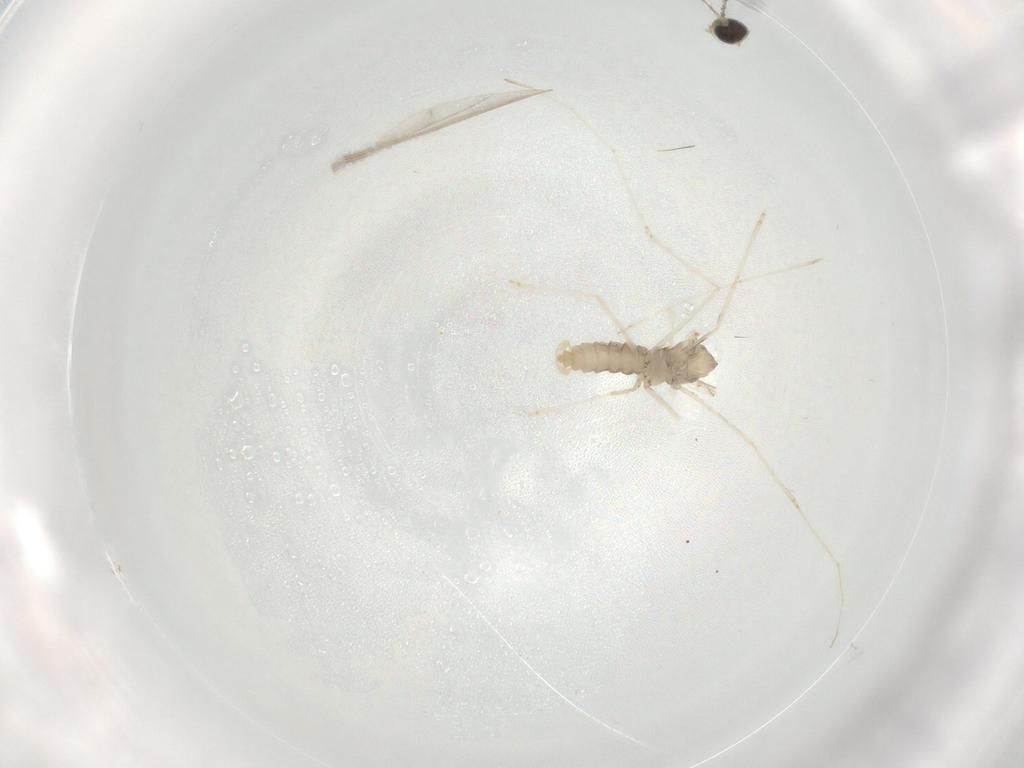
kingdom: Animalia
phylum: Arthropoda
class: Insecta
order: Diptera
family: Cecidomyiidae
